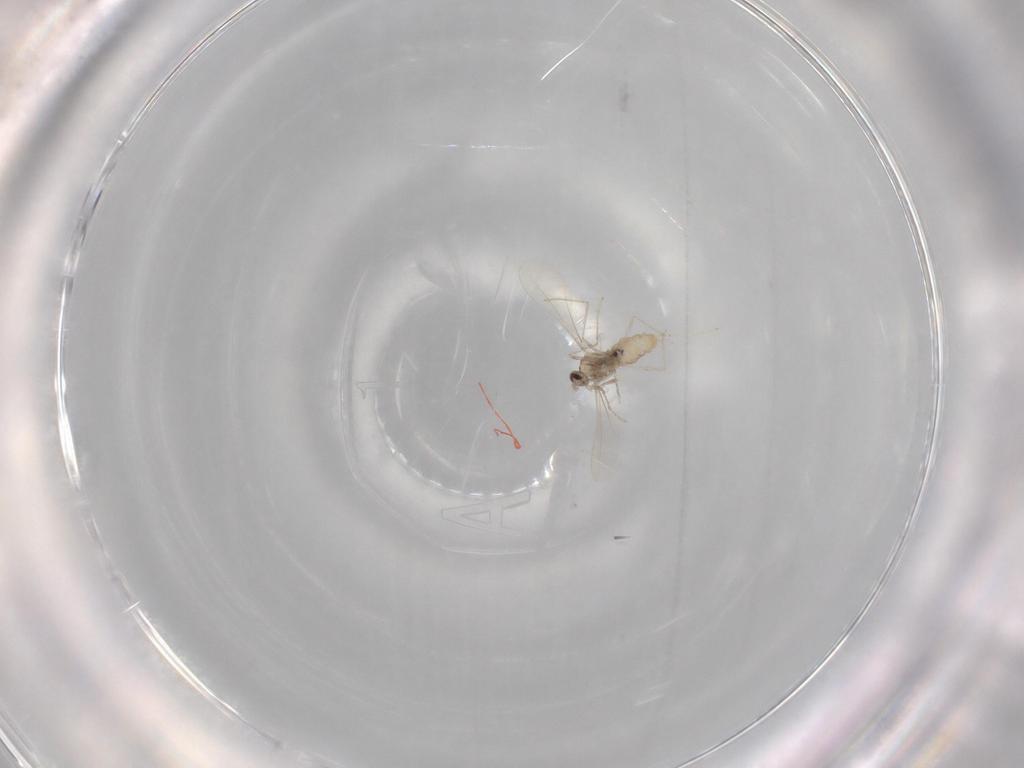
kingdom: Animalia
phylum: Arthropoda
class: Insecta
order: Diptera
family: Cecidomyiidae
